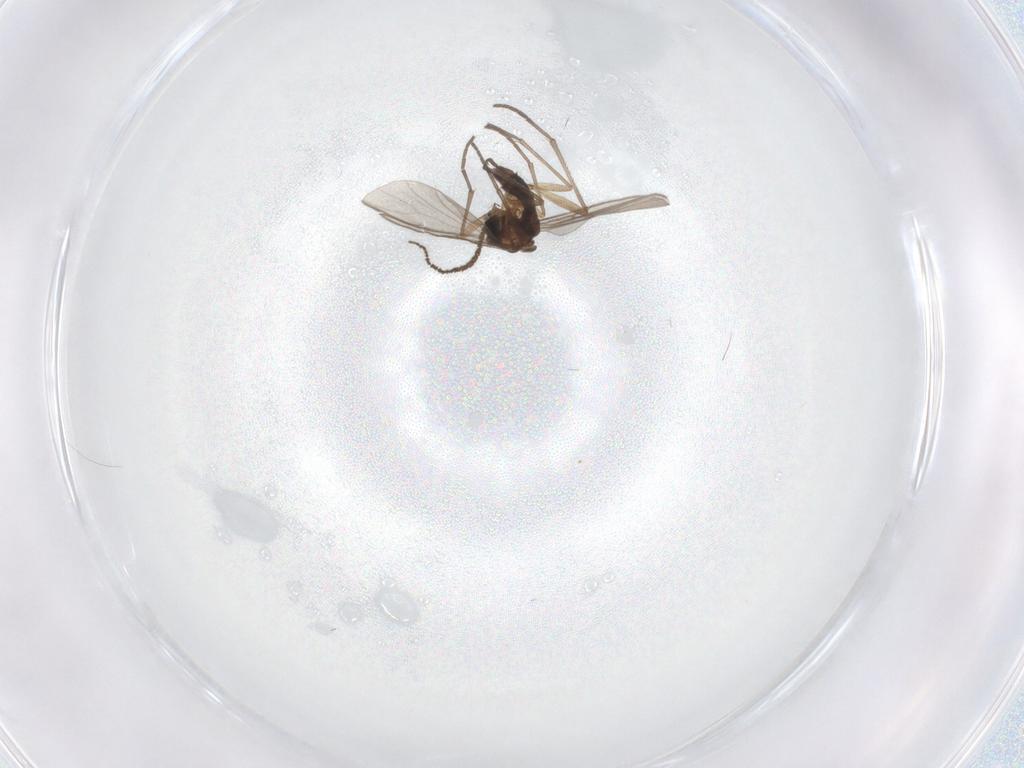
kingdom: Animalia
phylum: Arthropoda
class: Insecta
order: Diptera
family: Sciaridae
